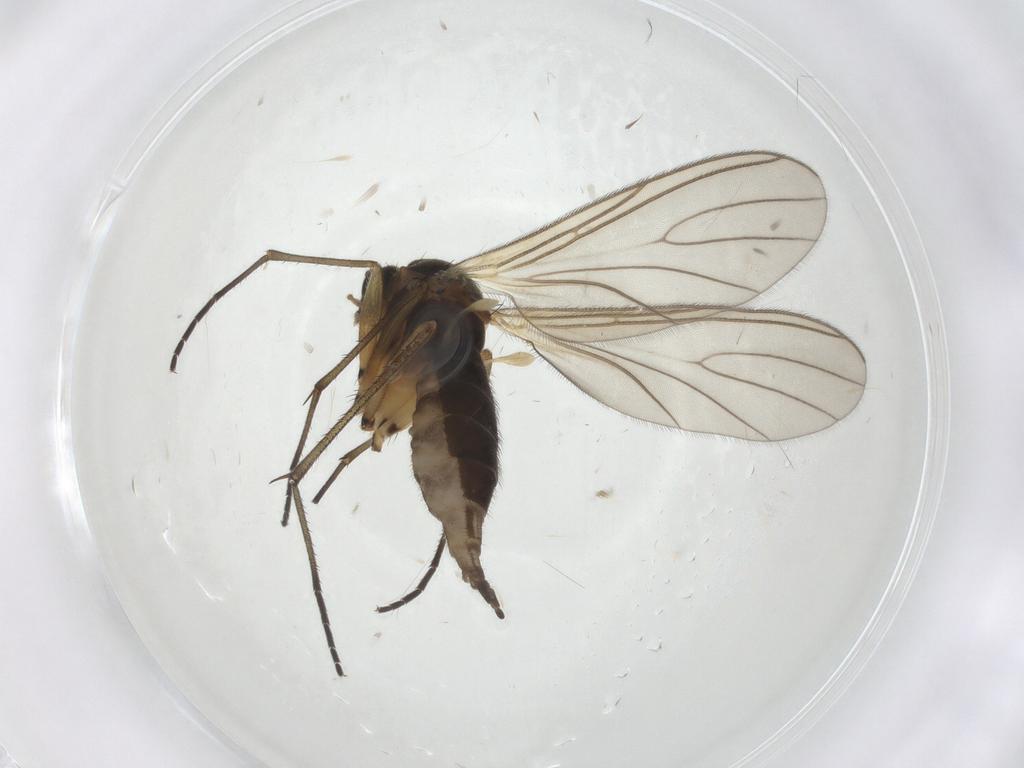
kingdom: Animalia
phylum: Arthropoda
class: Insecta
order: Diptera
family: Sciaridae
